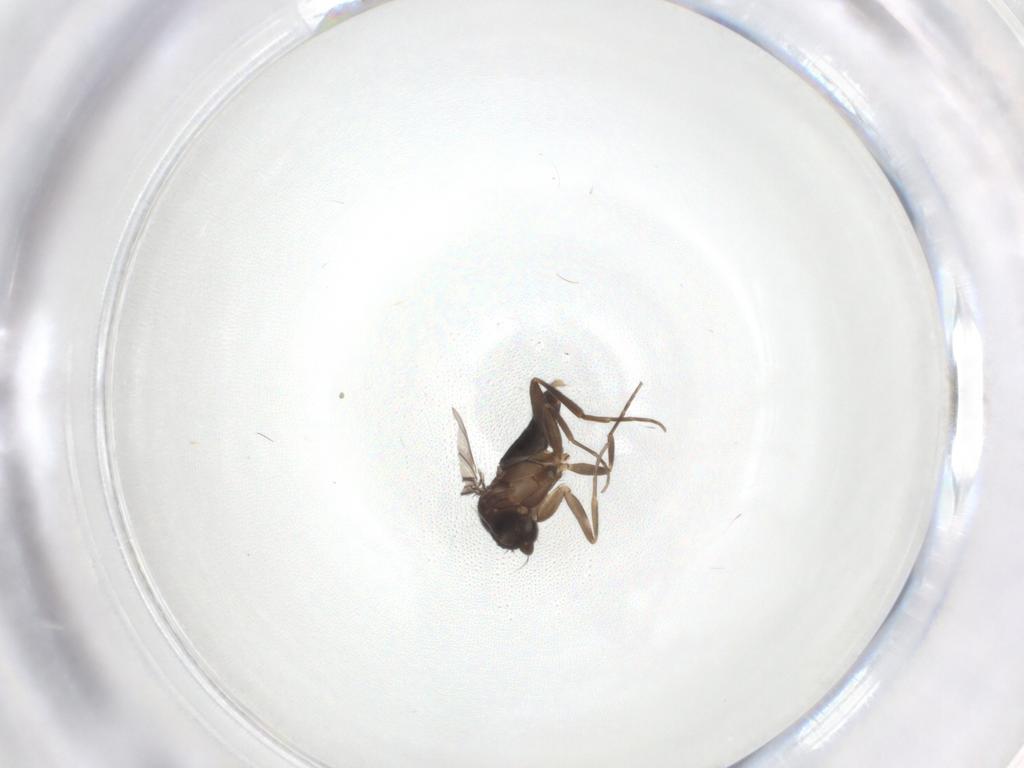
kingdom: Animalia
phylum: Arthropoda
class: Insecta
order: Diptera
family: Phoridae
